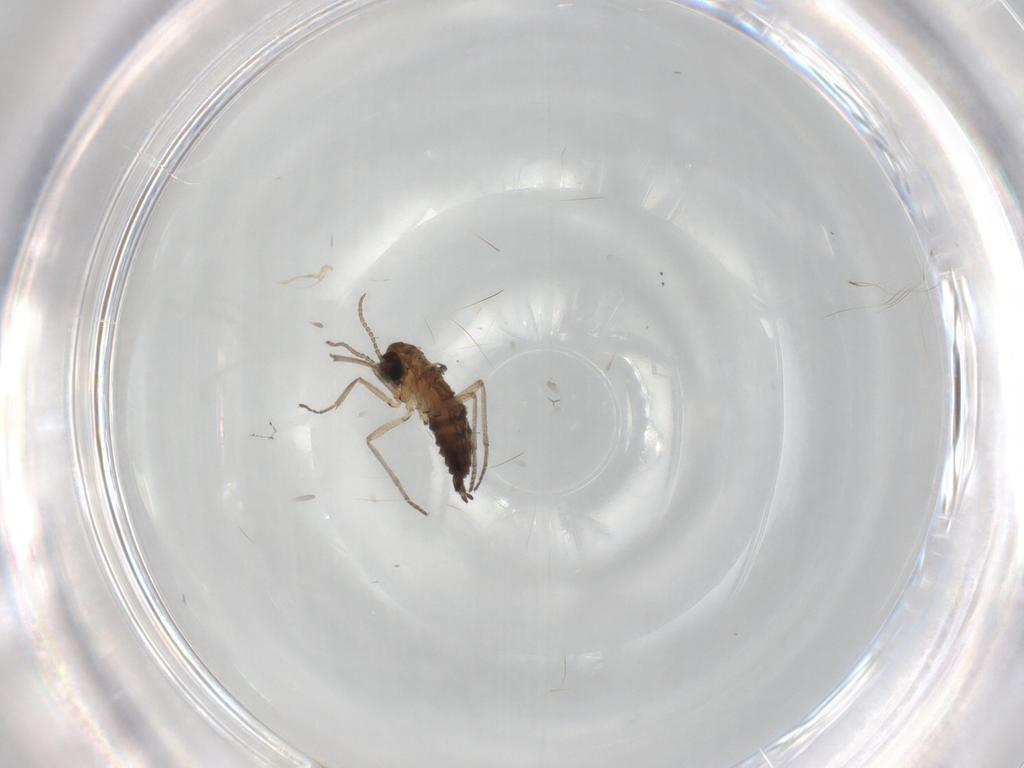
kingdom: Animalia
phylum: Arthropoda
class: Insecta
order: Diptera
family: Sciaridae
